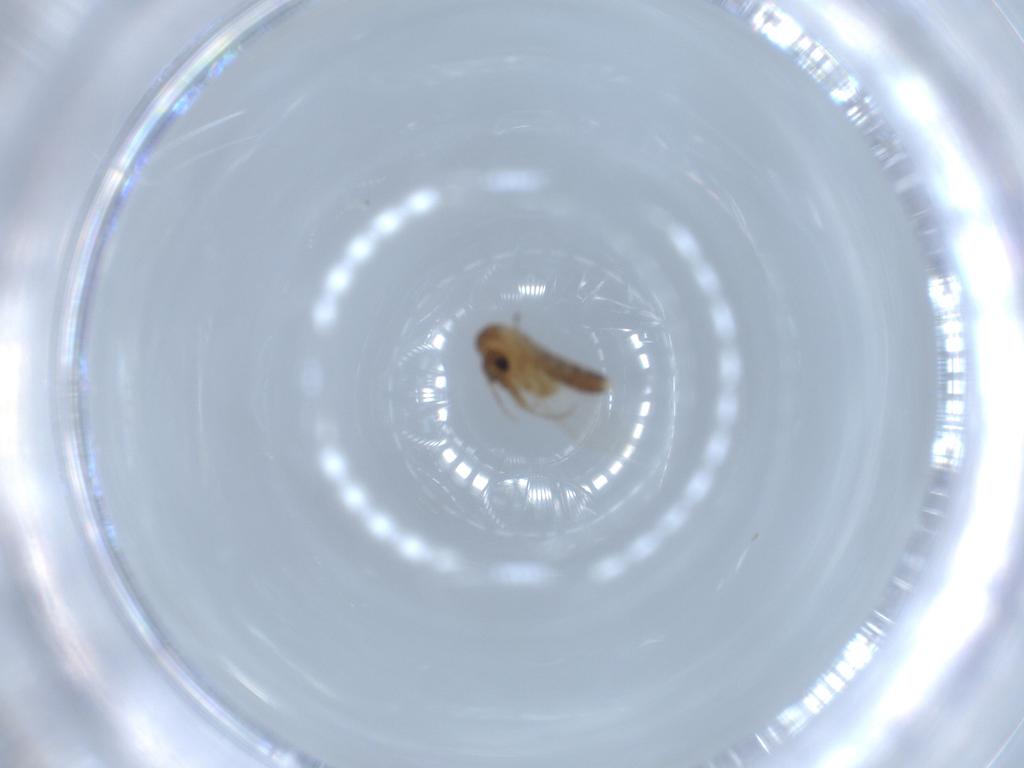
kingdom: Animalia
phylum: Arthropoda
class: Insecta
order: Diptera
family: Psychodidae
